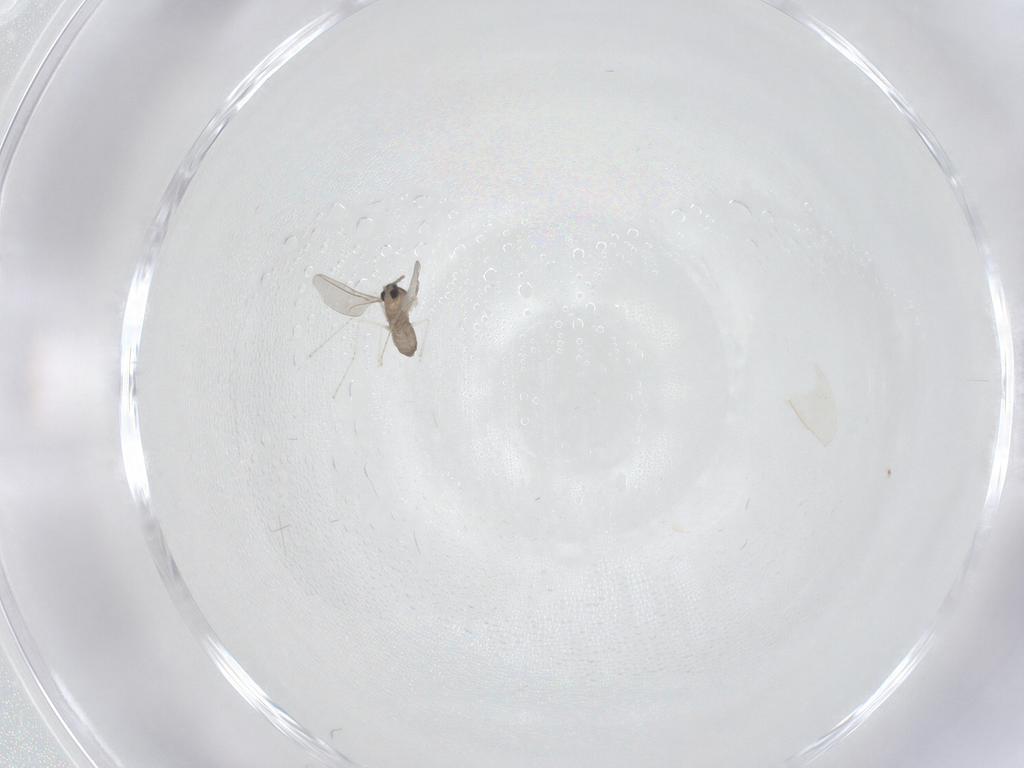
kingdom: Animalia
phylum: Arthropoda
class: Insecta
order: Diptera
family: Cecidomyiidae
